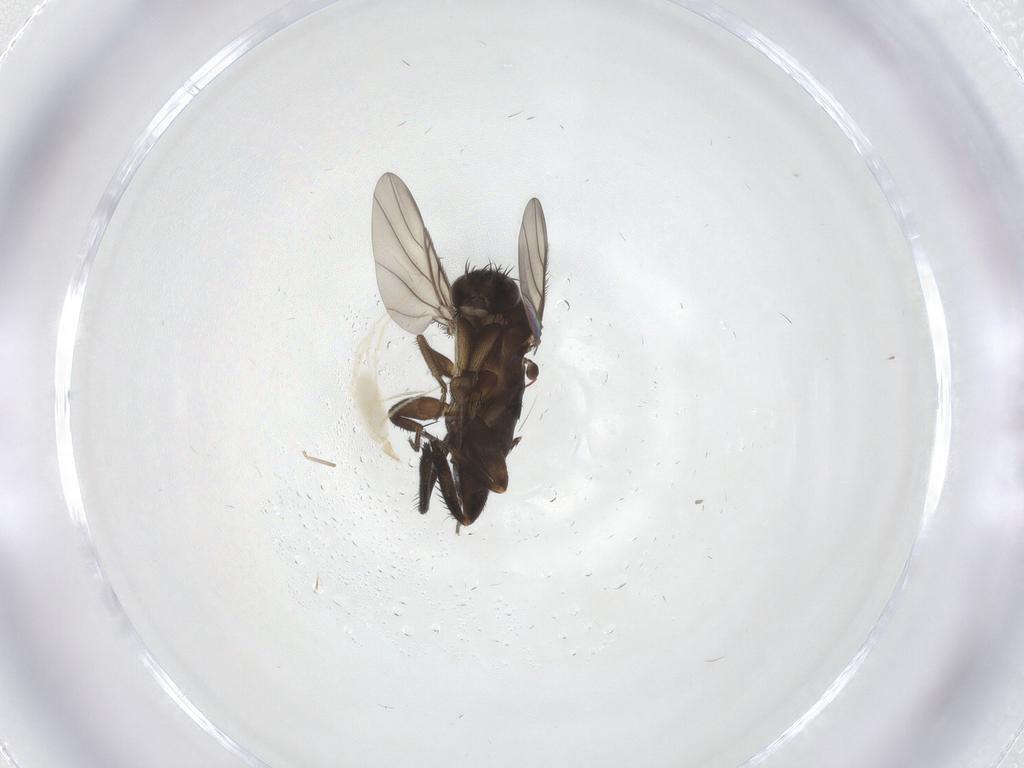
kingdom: Animalia
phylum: Arthropoda
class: Insecta
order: Diptera
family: Phoridae
